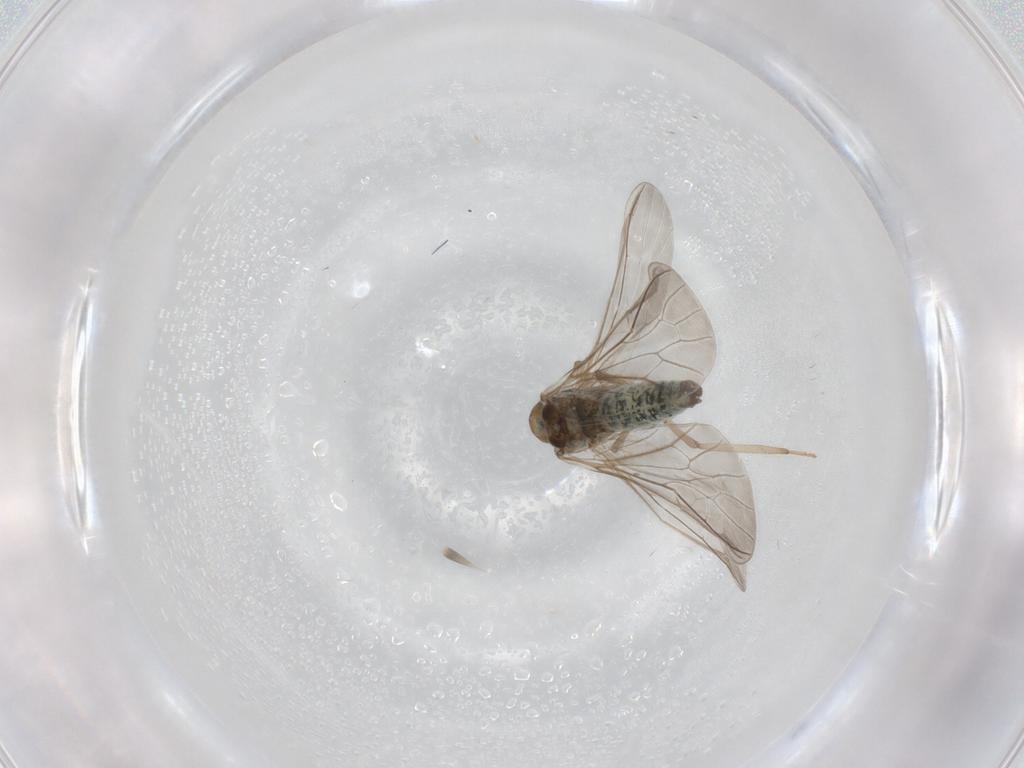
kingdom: Animalia
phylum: Arthropoda
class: Insecta
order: Neuroptera
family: Coniopterygidae
